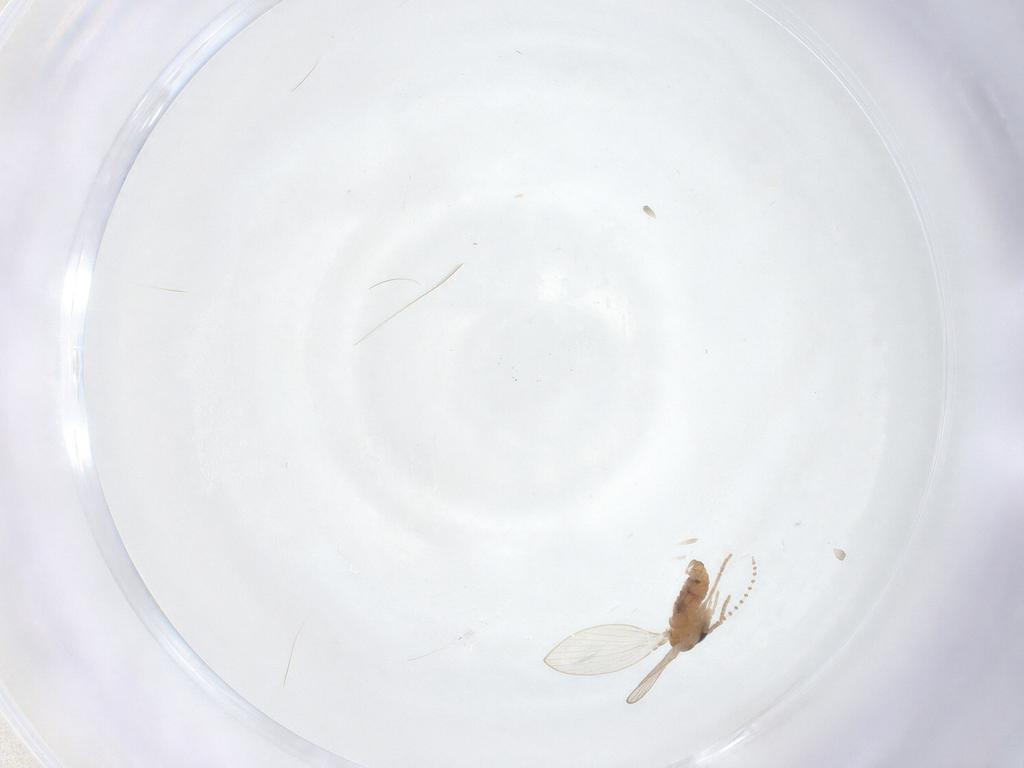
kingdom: Animalia
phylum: Arthropoda
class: Insecta
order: Diptera
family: Psychodidae
